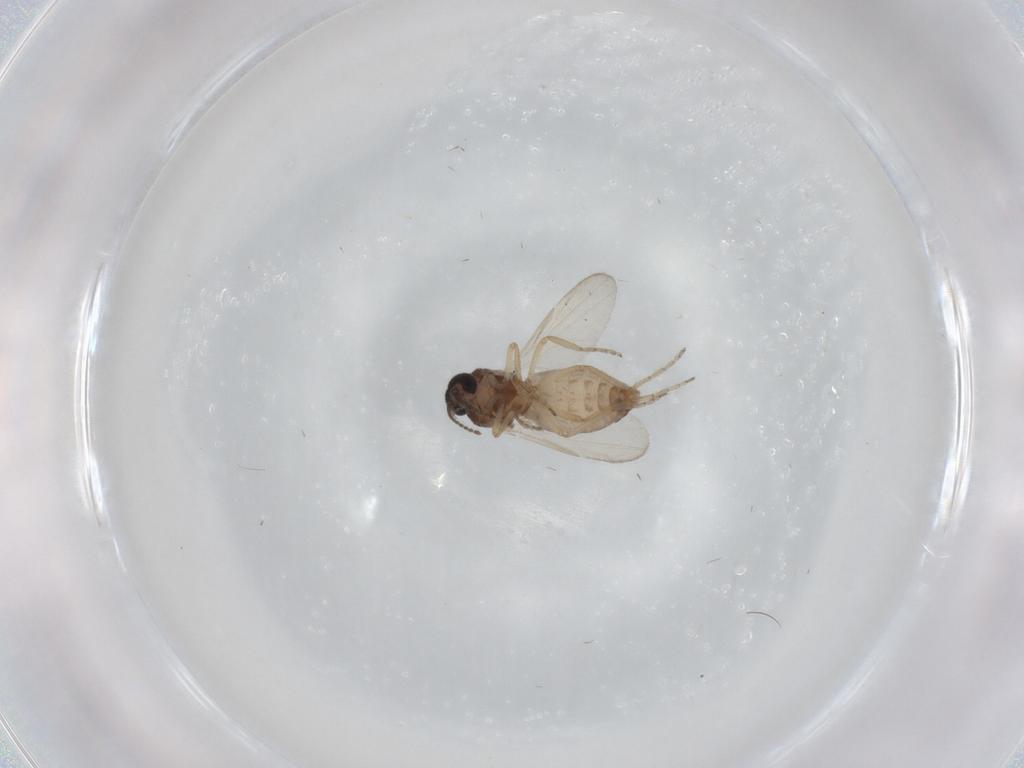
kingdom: Animalia
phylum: Arthropoda
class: Insecta
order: Diptera
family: Ceratopogonidae
